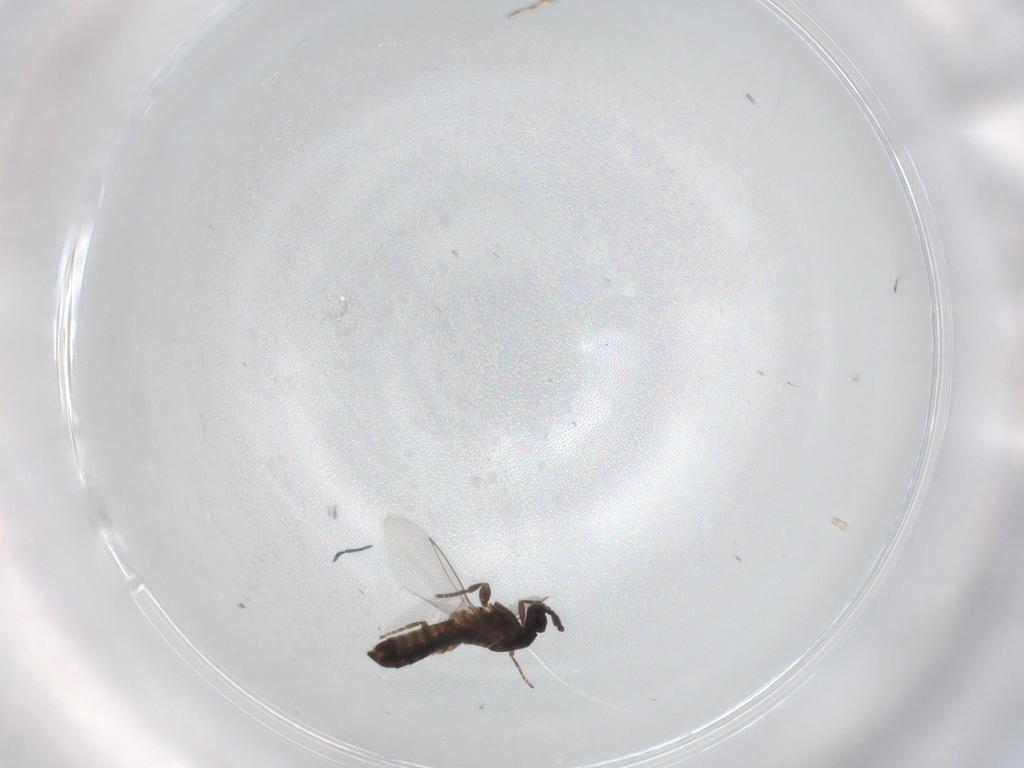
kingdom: Animalia
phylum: Arthropoda
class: Insecta
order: Diptera
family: Scatopsidae
